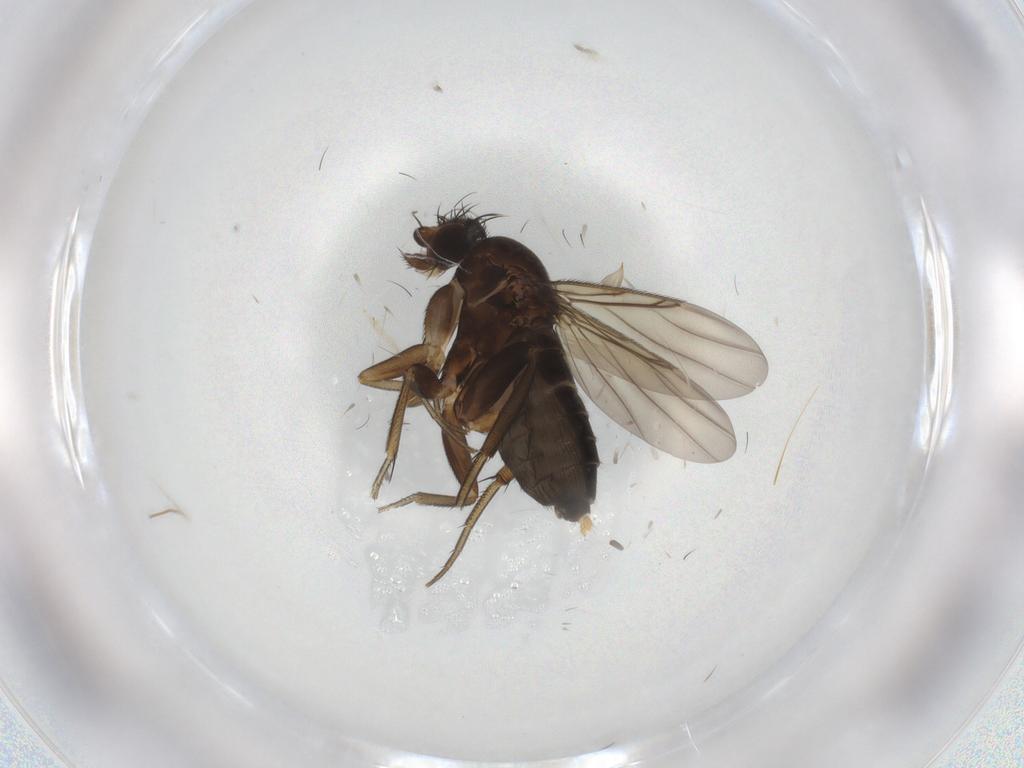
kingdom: Animalia
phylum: Arthropoda
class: Insecta
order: Diptera
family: Phoridae
